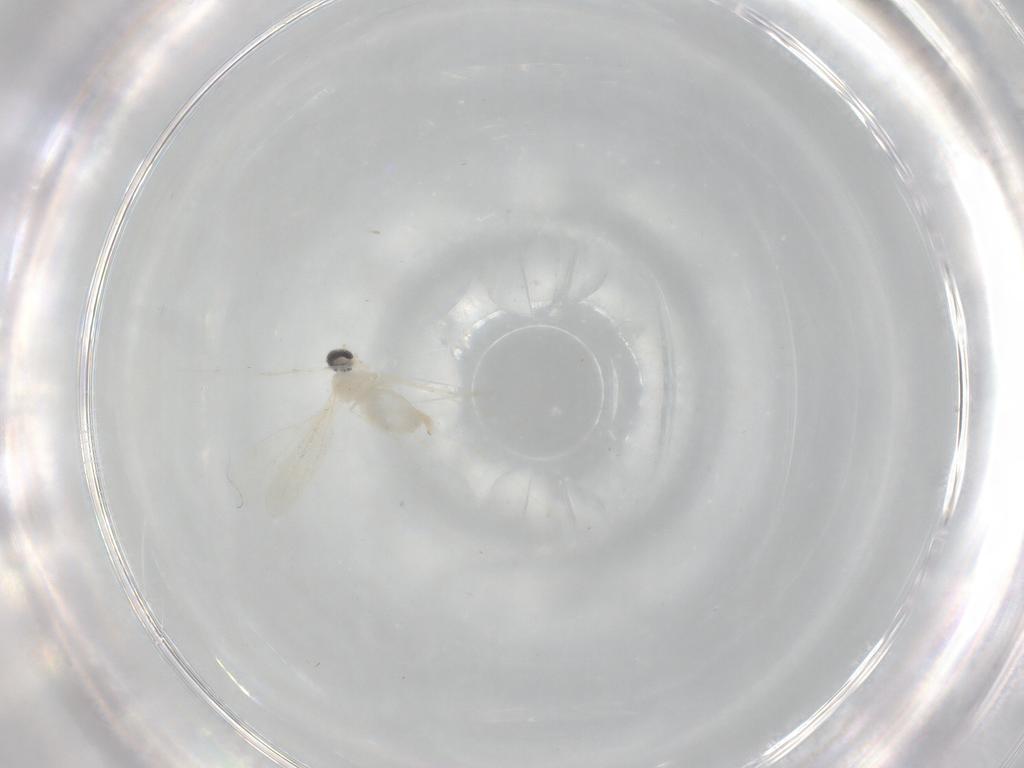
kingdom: Animalia
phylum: Arthropoda
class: Insecta
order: Diptera
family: Cecidomyiidae
